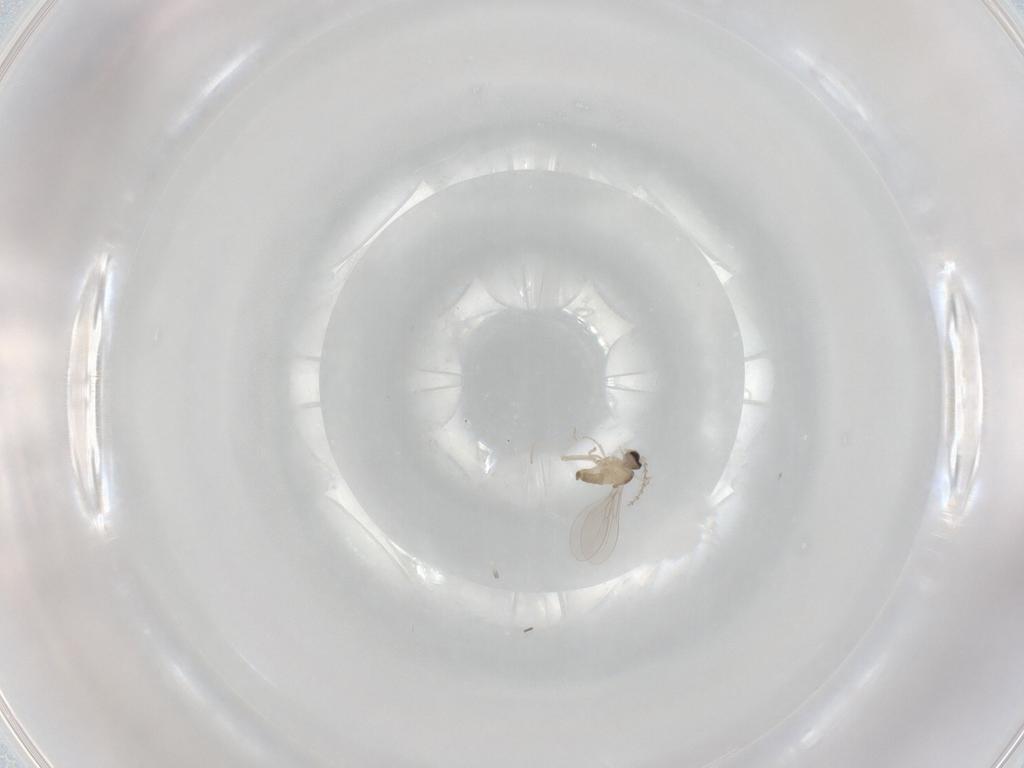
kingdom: Animalia
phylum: Arthropoda
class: Insecta
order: Diptera
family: Cecidomyiidae
